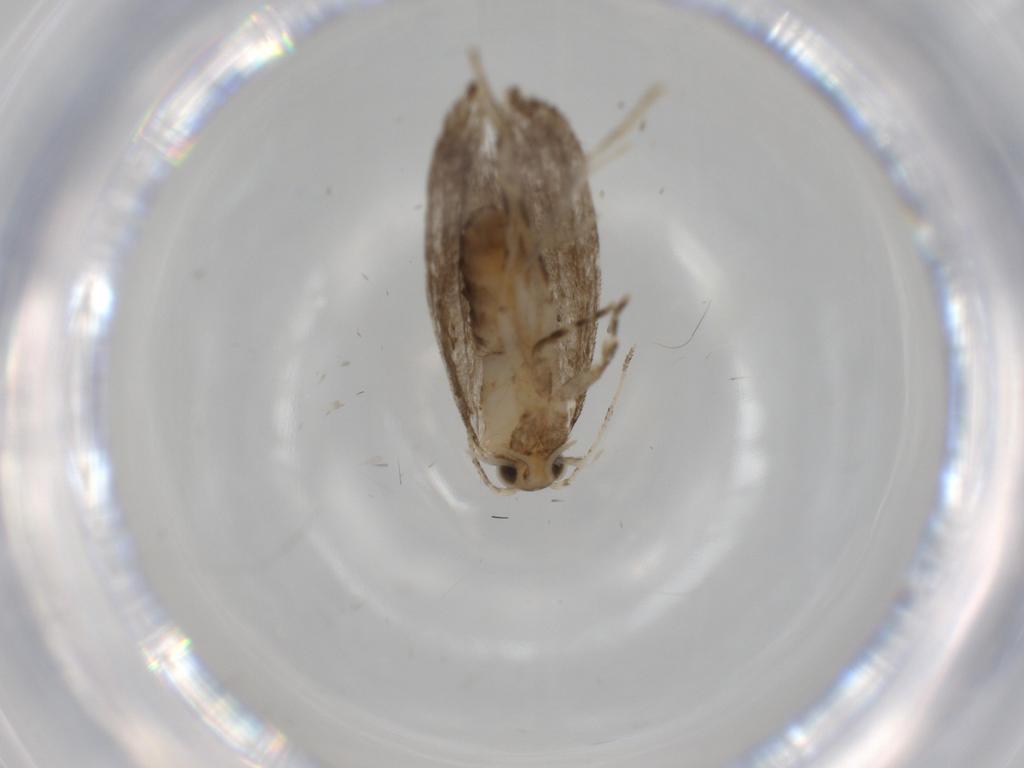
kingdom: Animalia
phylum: Arthropoda
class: Insecta
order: Lepidoptera
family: Tineidae
